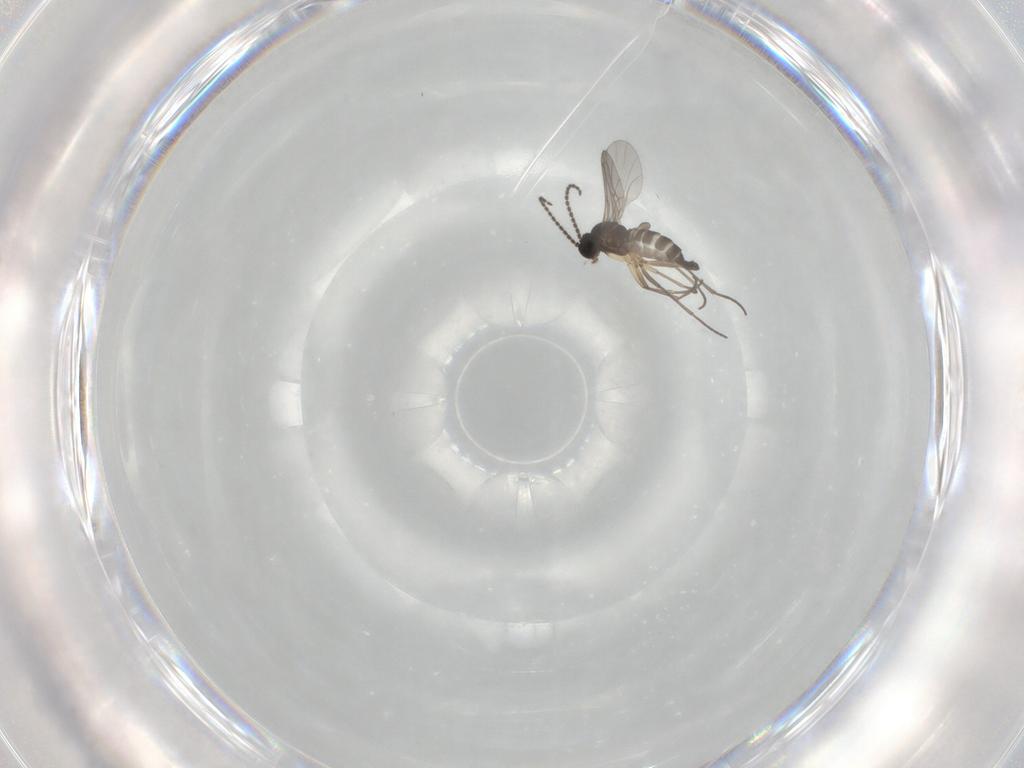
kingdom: Animalia
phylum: Arthropoda
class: Insecta
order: Diptera
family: Sciaridae
